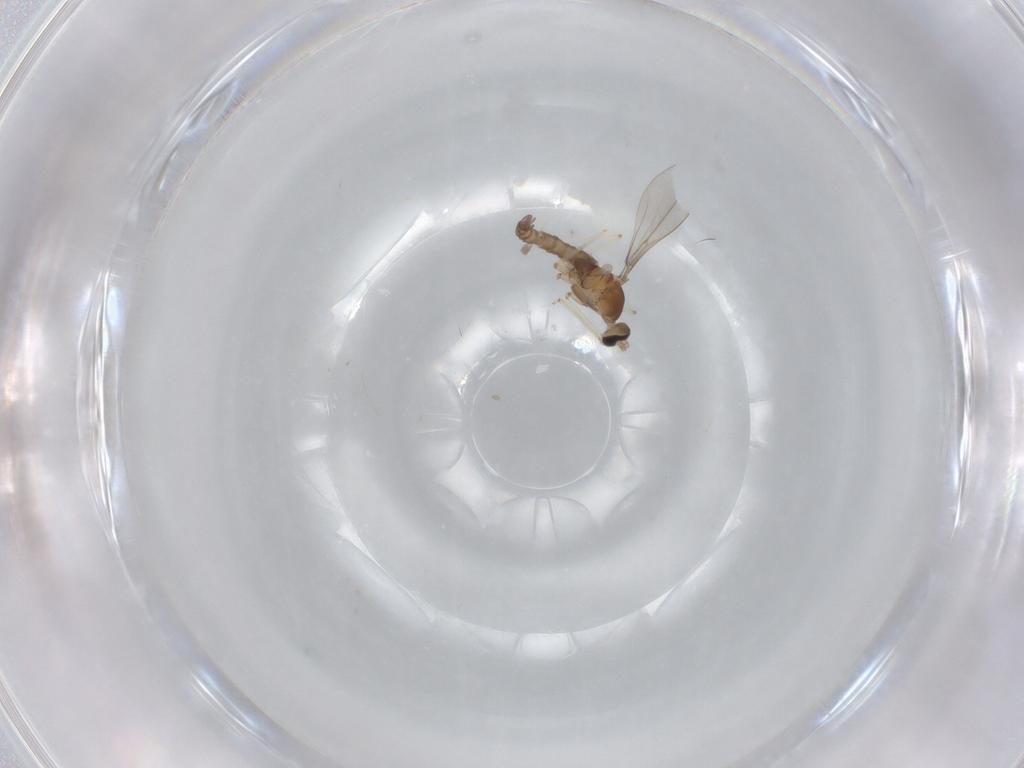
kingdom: Animalia
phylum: Arthropoda
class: Insecta
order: Diptera
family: Cecidomyiidae
